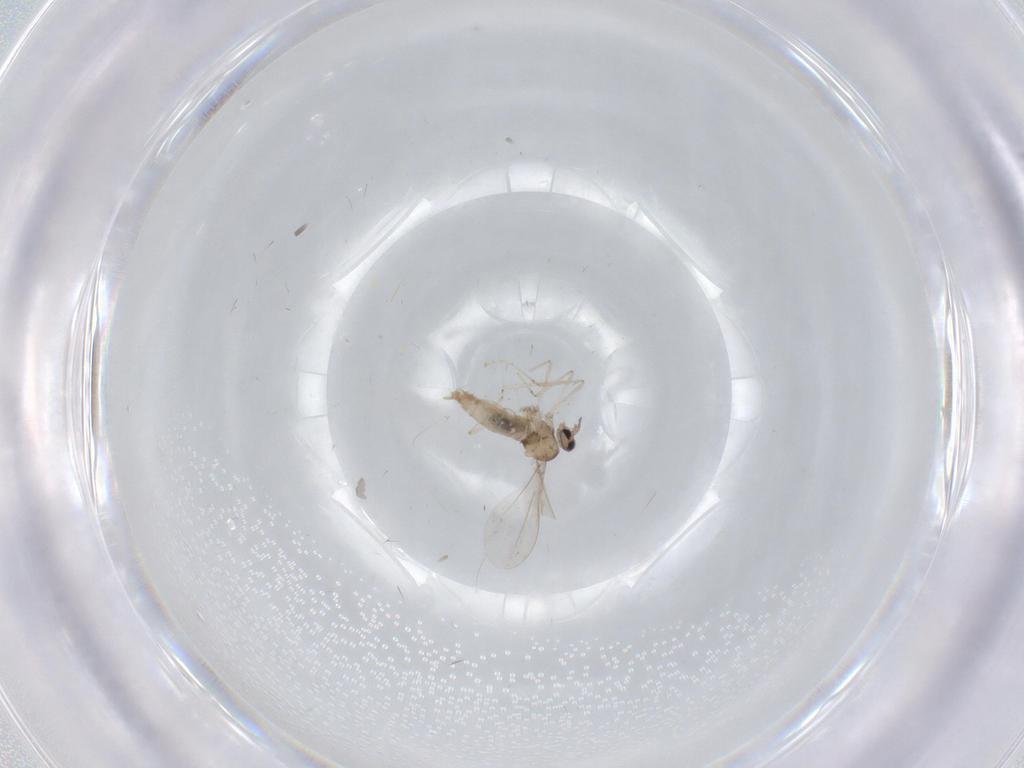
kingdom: Animalia
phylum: Arthropoda
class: Insecta
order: Diptera
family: Cecidomyiidae
